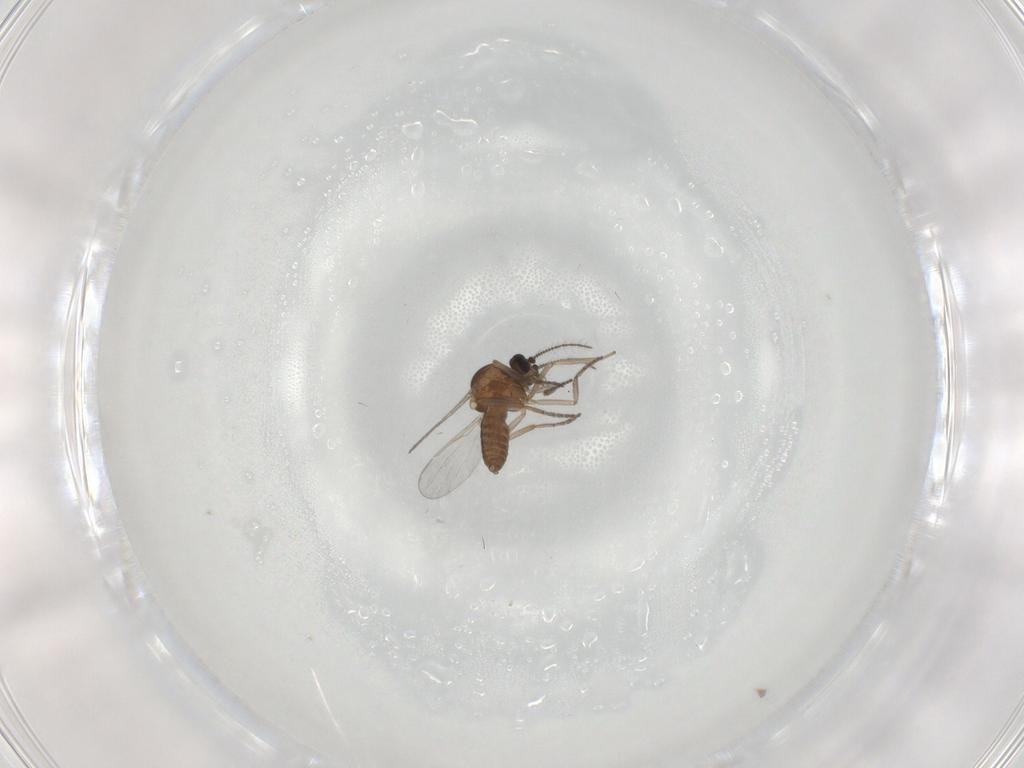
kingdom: Animalia
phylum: Arthropoda
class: Insecta
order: Diptera
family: Ceratopogonidae
